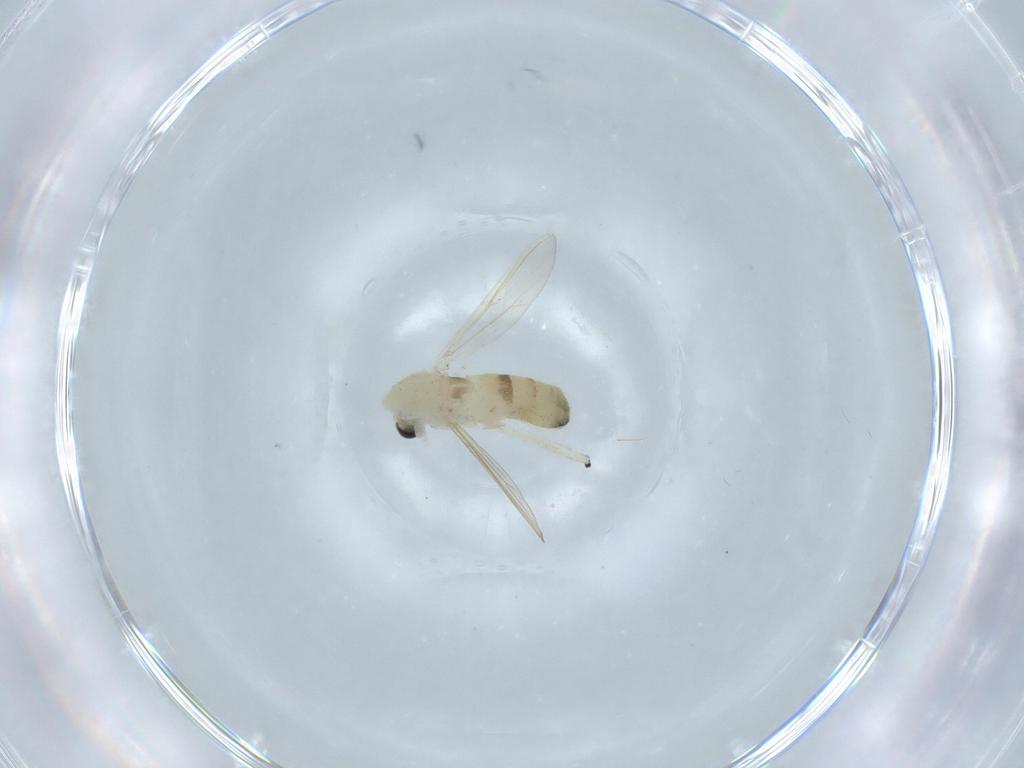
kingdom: Animalia
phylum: Arthropoda
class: Insecta
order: Diptera
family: Chironomidae
